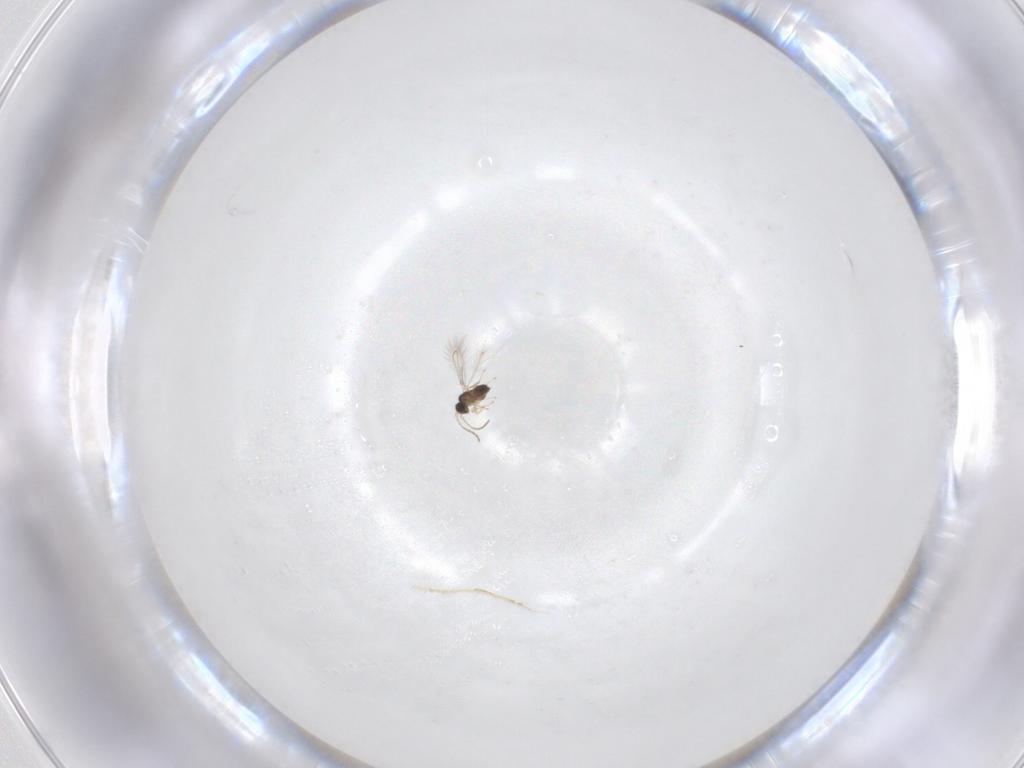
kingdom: Animalia
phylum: Arthropoda
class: Insecta
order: Hymenoptera
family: Mymaridae
